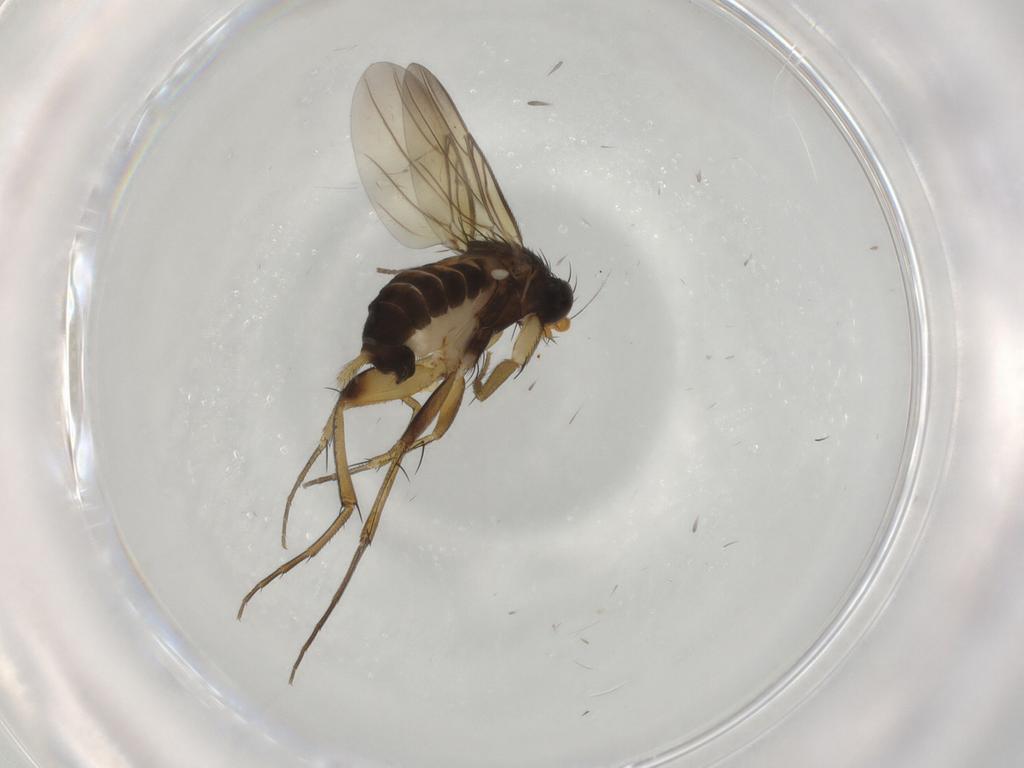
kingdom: Animalia
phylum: Arthropoda
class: Insecta
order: Diptera
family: Phoridae
